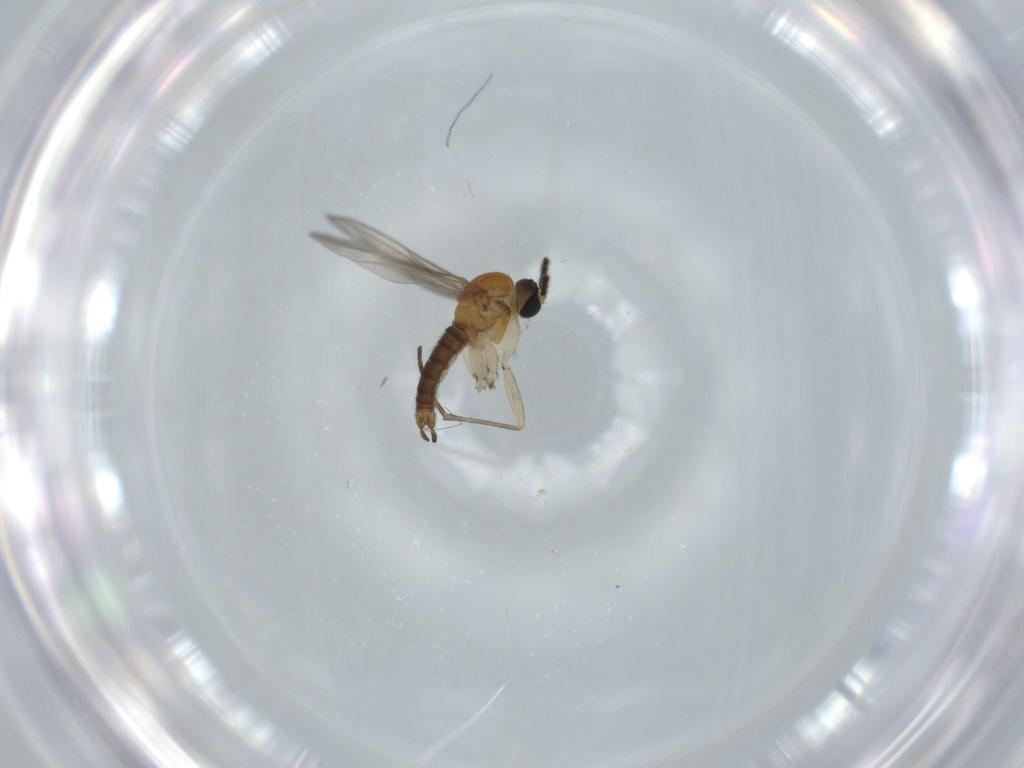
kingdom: Animalia
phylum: Arthropoda
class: Insecta
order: Diptera
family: Sciaridae
